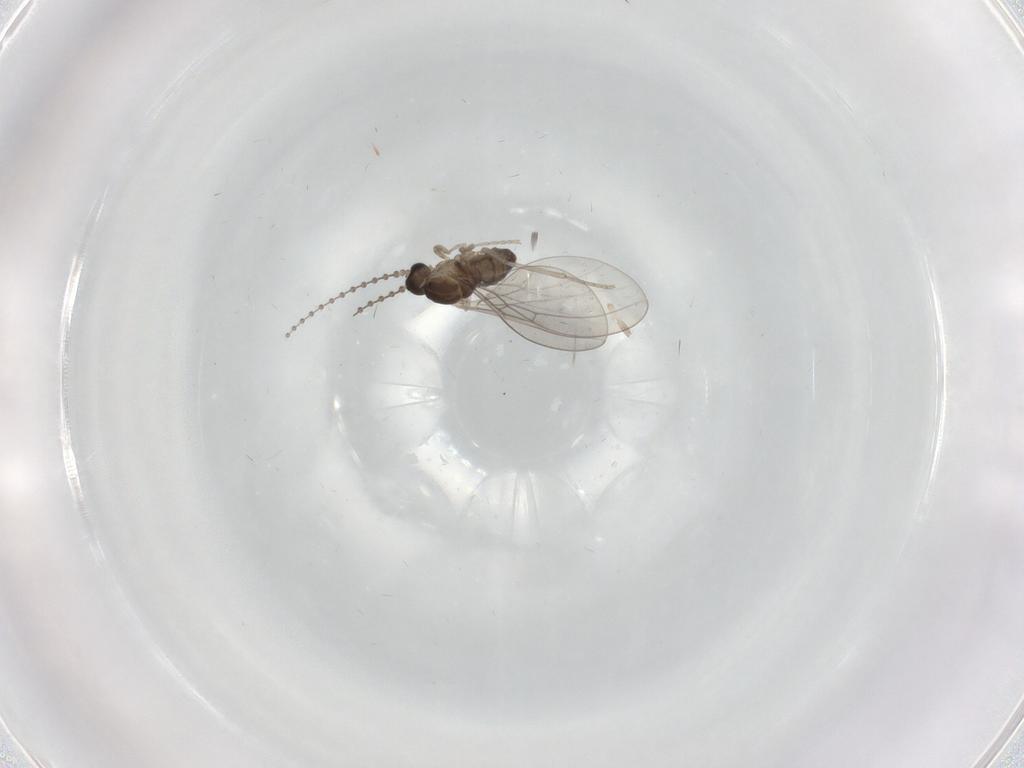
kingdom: Animalia
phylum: Arthropoda
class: Insecta
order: Diptera
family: Cecidomyiidae
